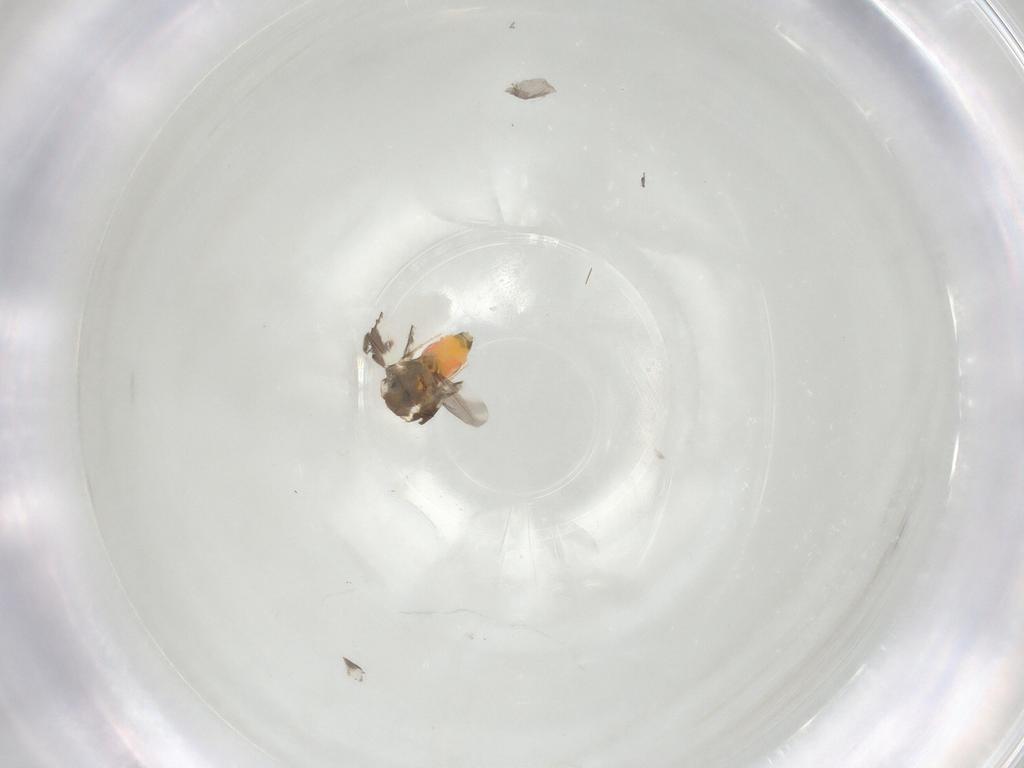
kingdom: Animalia
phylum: Arthropoda
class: Insecta
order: Hemiptera
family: Aleyrodidae
